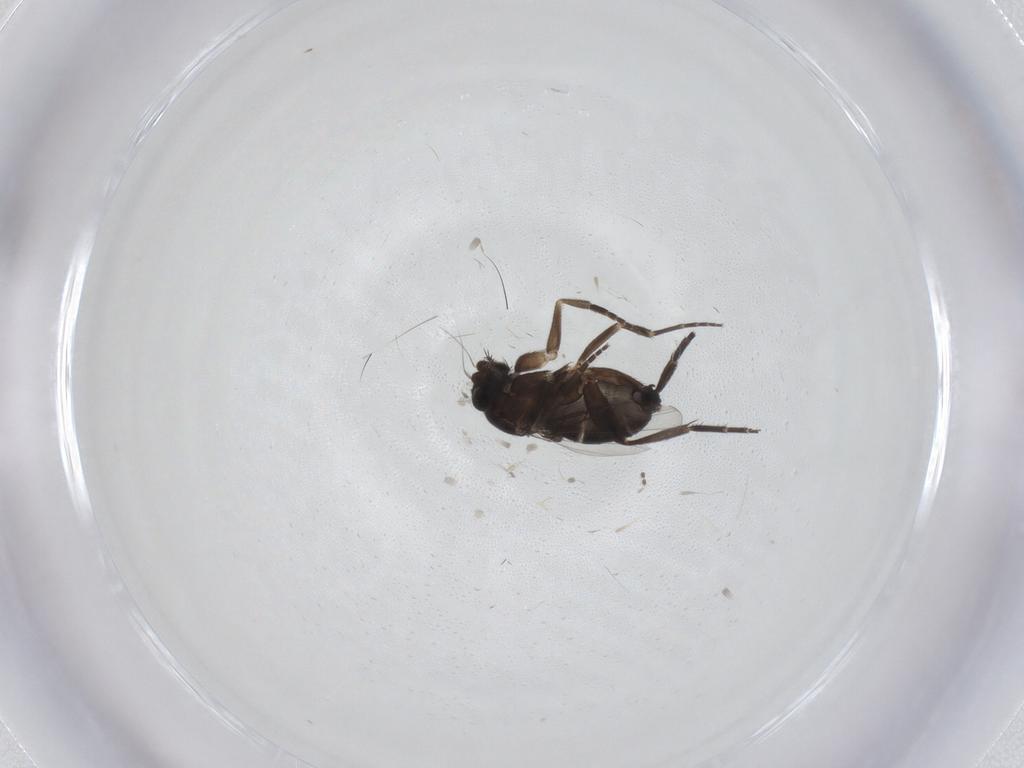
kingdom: Animalia
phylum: Arthropoda
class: Insecta
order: Diptera
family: Phoridae
